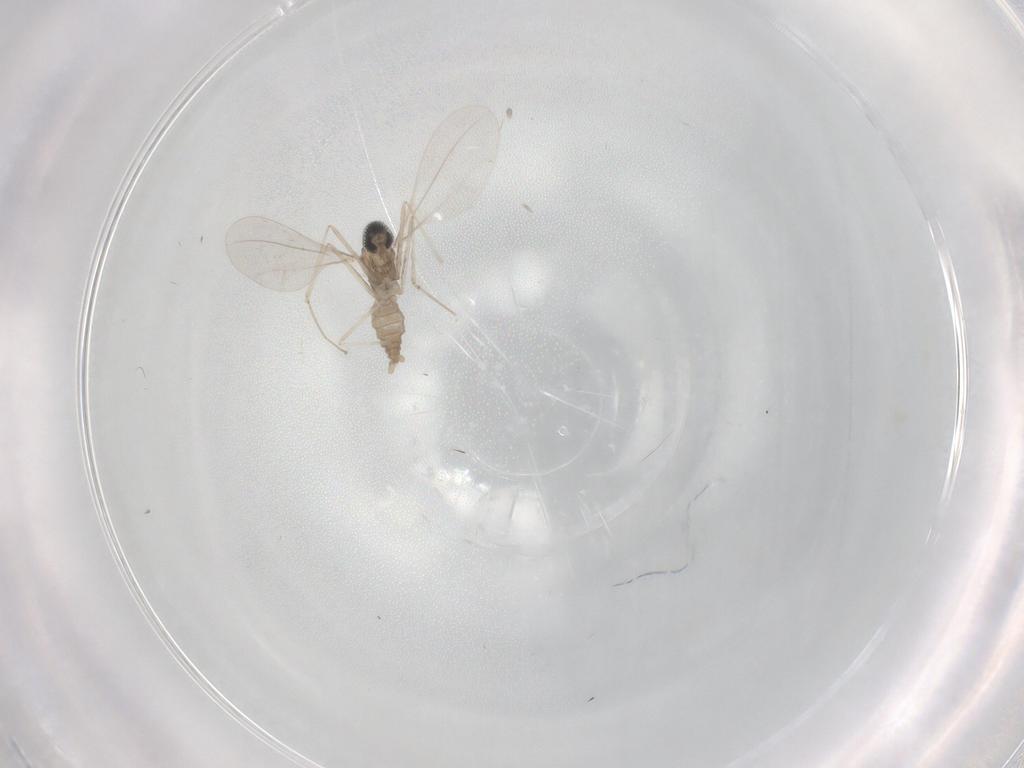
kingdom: Animalia
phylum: Arthropoda
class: Insecta
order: Diptera
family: Cecidomyiidae
